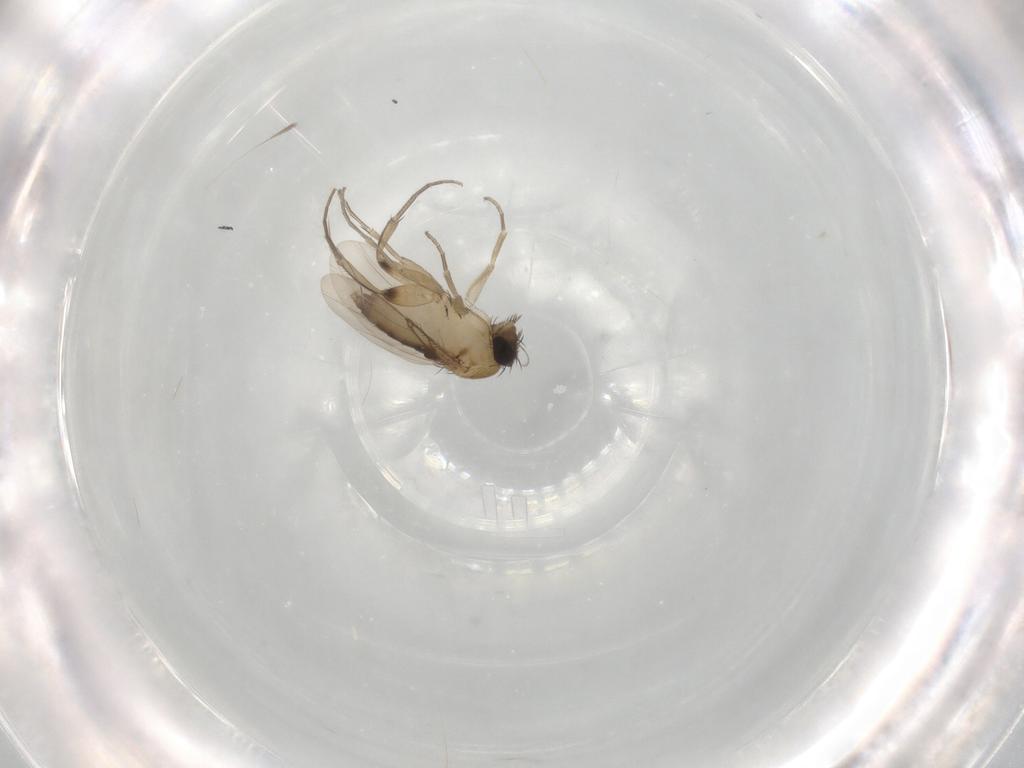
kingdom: Animalia
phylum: Arthropoda
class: Insecta
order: Diptera
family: Phoridae
